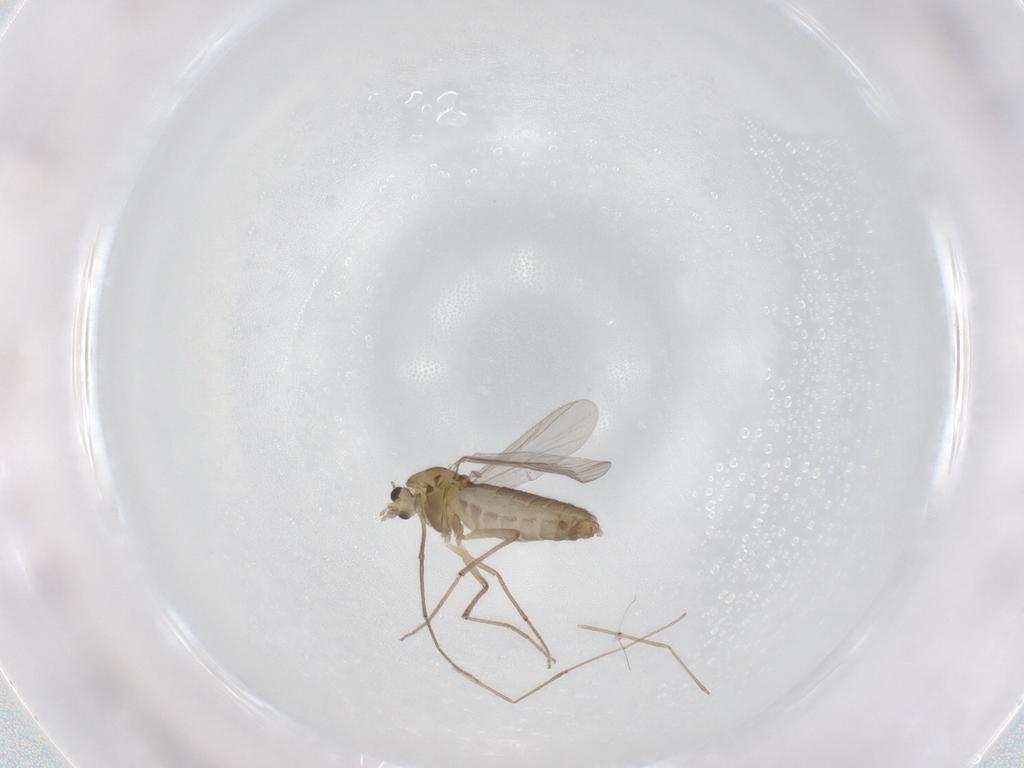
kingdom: Animalia
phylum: Arthropoda
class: Insecta
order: Diptera
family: Chironomidae
